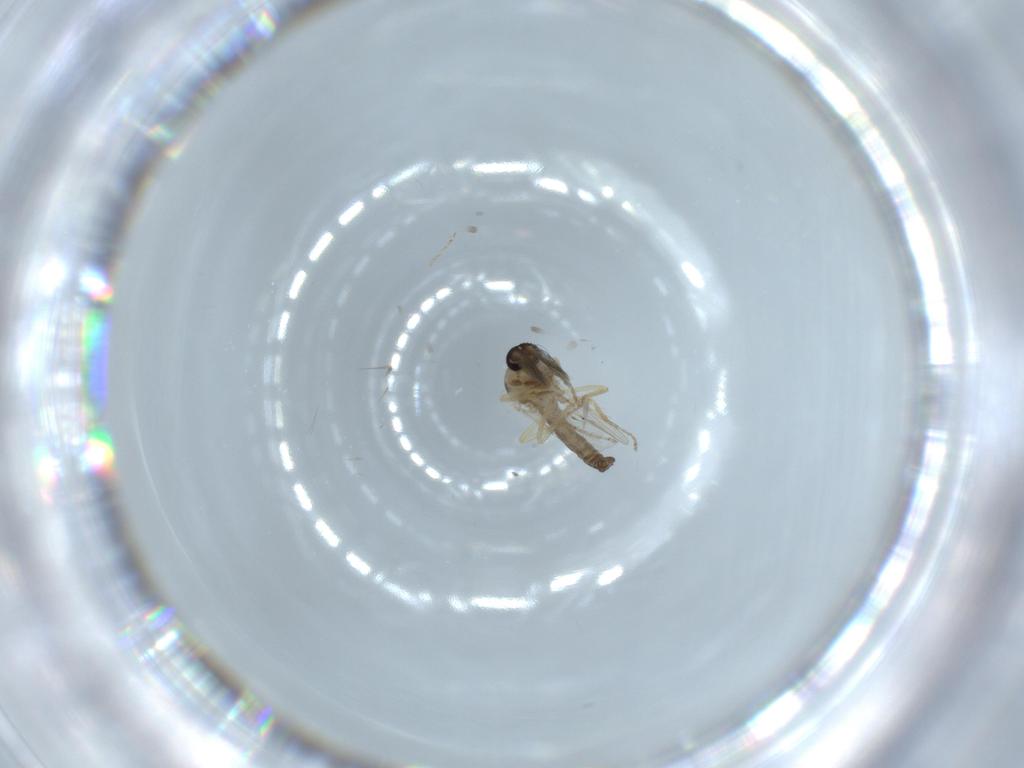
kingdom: Animalia
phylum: Arthropoda
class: Insecta
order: Diptera
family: Ceratopogonidae
